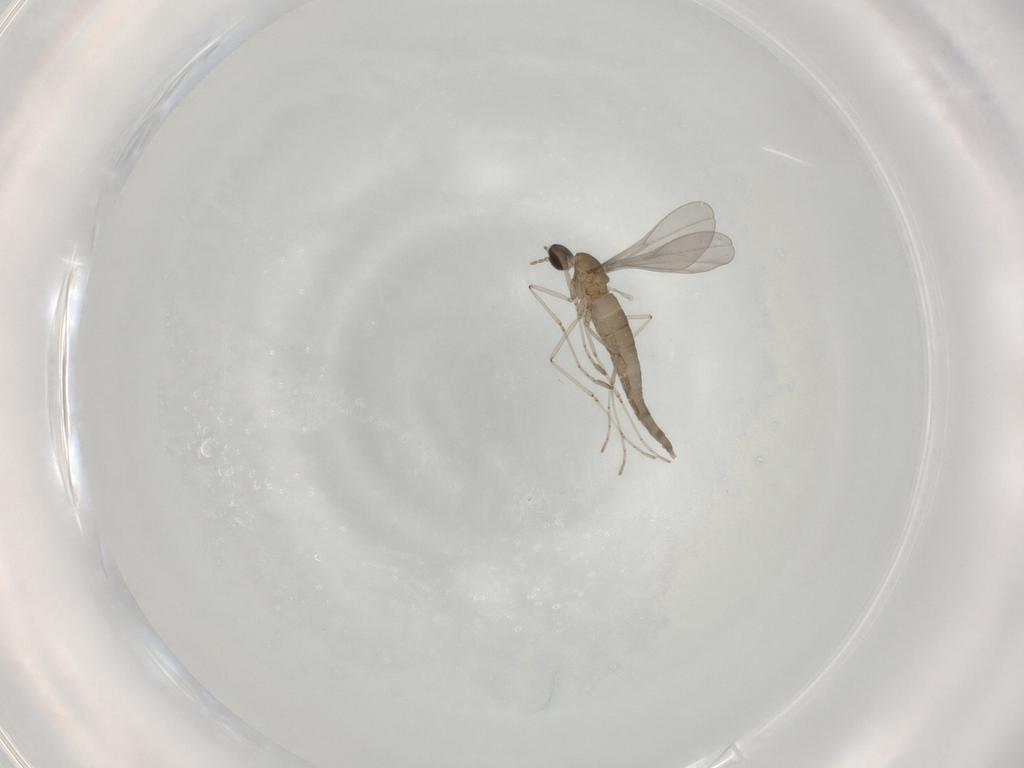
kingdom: Animalia
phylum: Arthropoda
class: Insecta
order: Diptera
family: Cecidomyiidae
